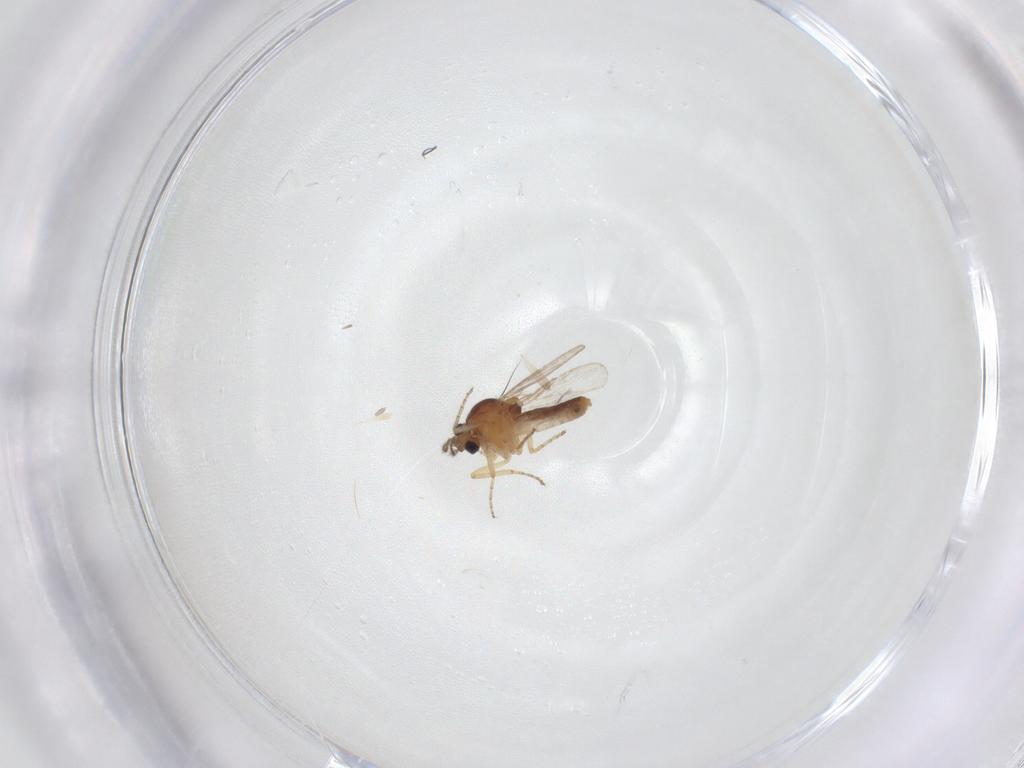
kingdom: Animalia
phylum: Arthropoda
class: Insecta
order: Diptera
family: Ceratopogonidae
